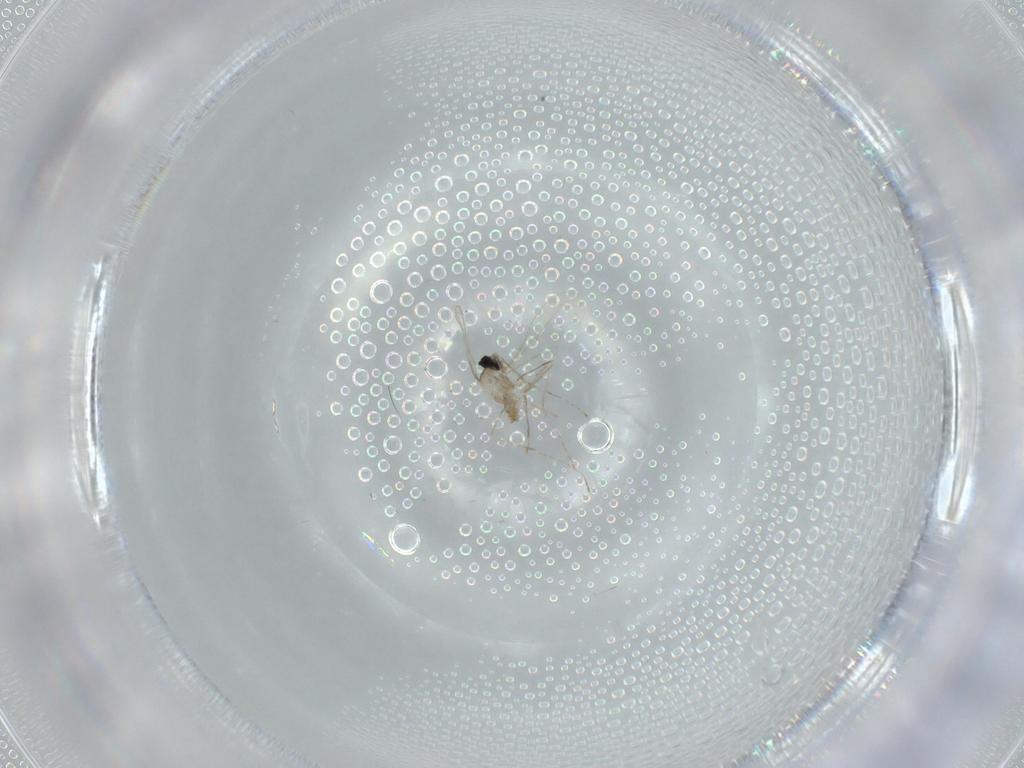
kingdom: Animalia
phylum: Arthropoda
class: Insecta
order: Diptera
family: Cecidomyiidae
